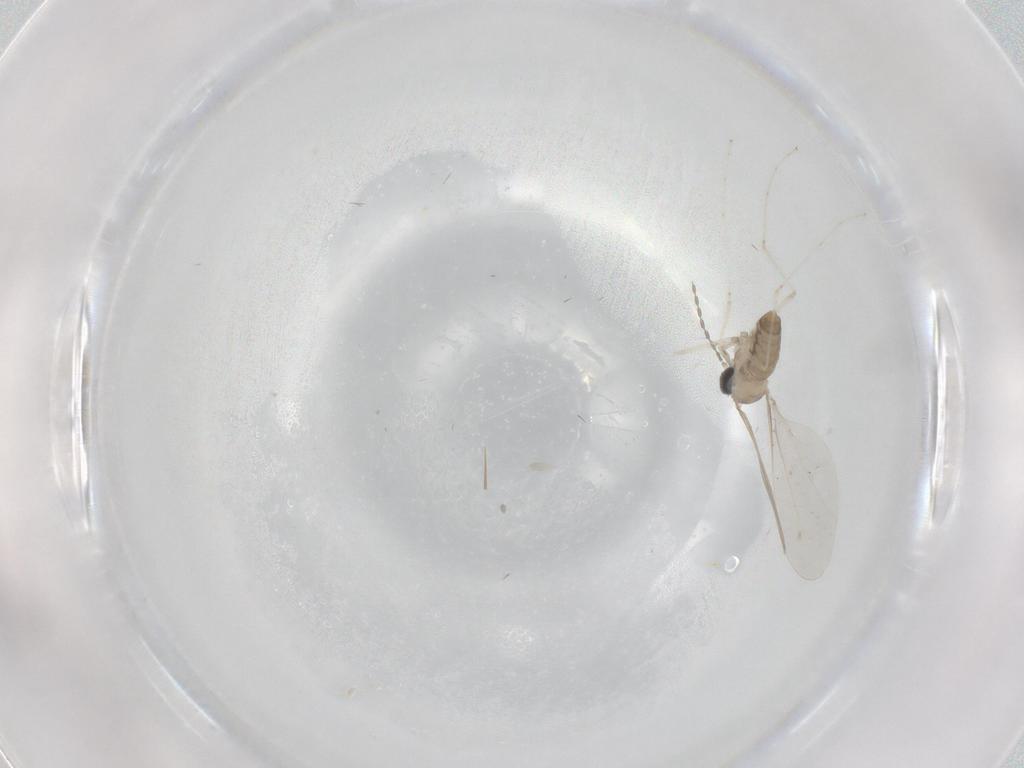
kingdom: Animalia
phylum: Arthropoda
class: Insecta
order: Diptera
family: Cecidomyiidae
